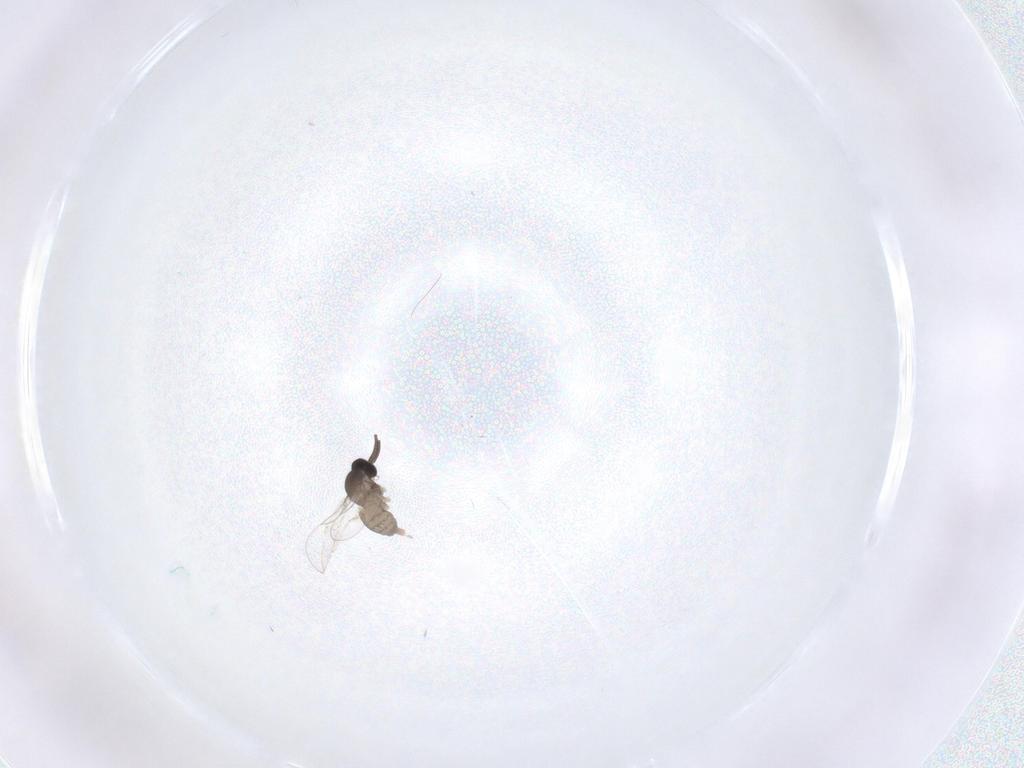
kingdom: Animalia
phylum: Arthropoda
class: Insecta
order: Diptera
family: Cecidomyiidae
